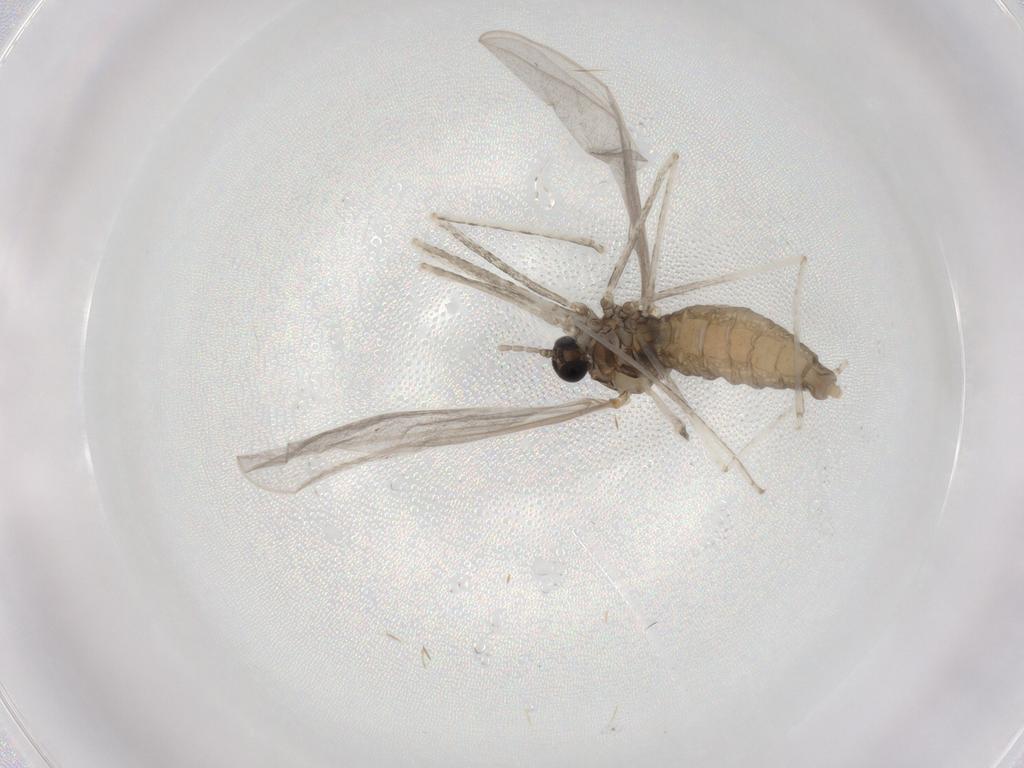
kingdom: Animalia
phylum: Arthropoda
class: Insecta
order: Diptera
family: Cecidomyiidae
